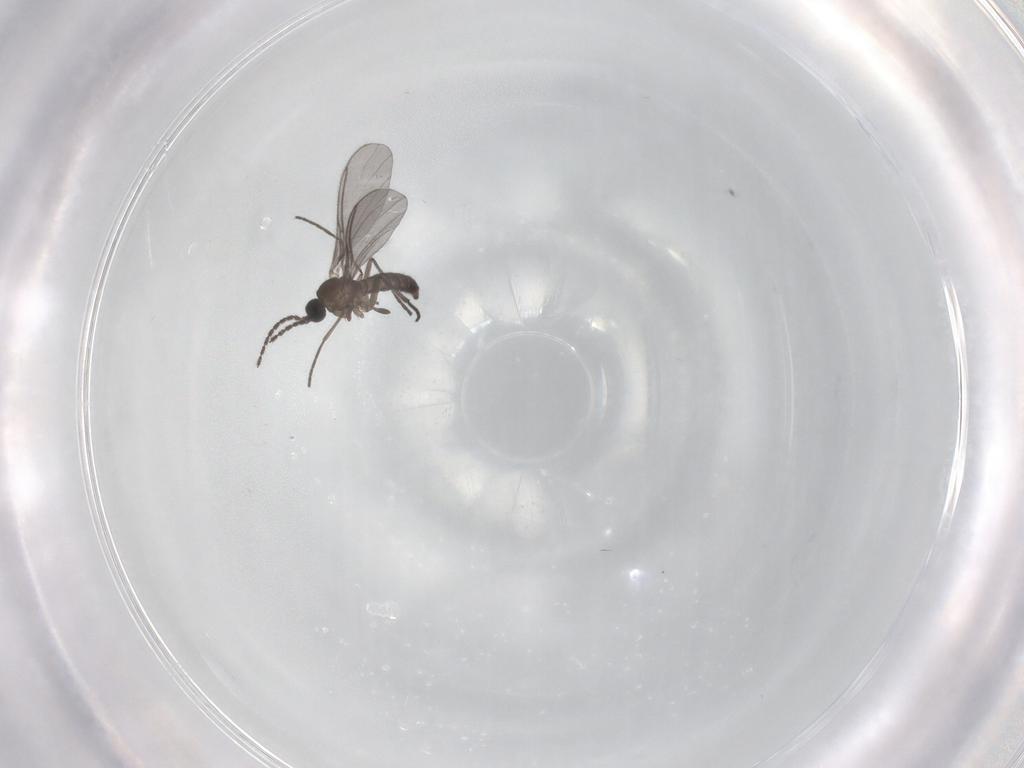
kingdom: Animalia
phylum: Arthropoda
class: Insecta
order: Diptera
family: Sciaridae
